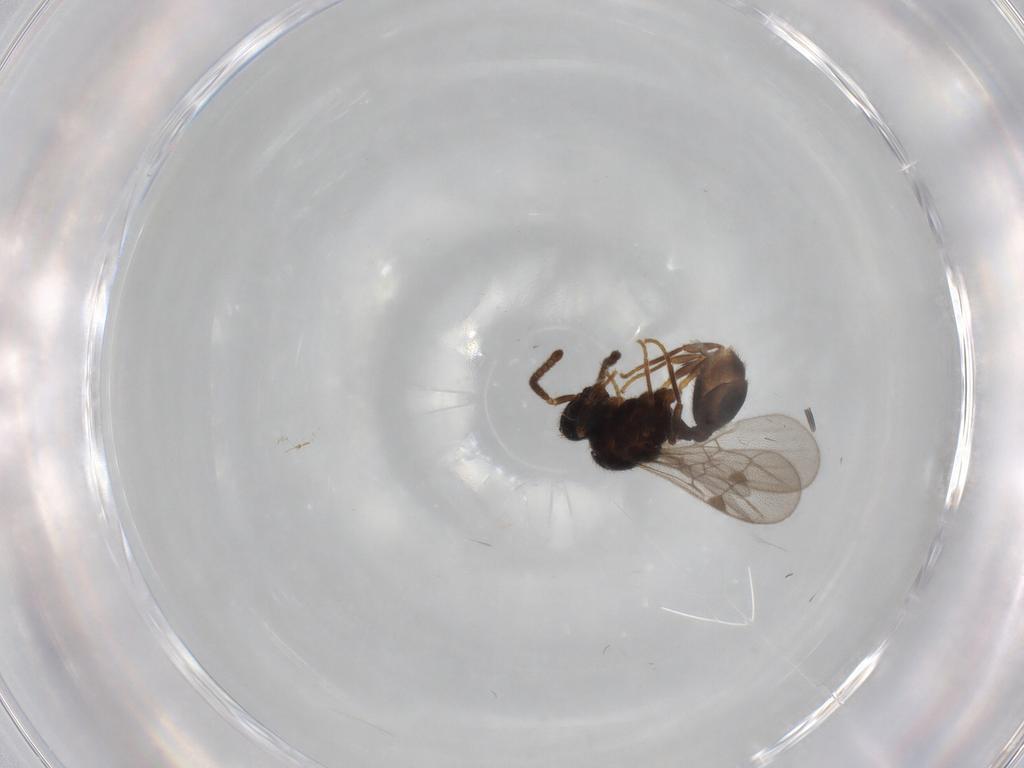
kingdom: Animalia
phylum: Arthropoda
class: Insecta
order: Hymenoptera
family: Formicidae
